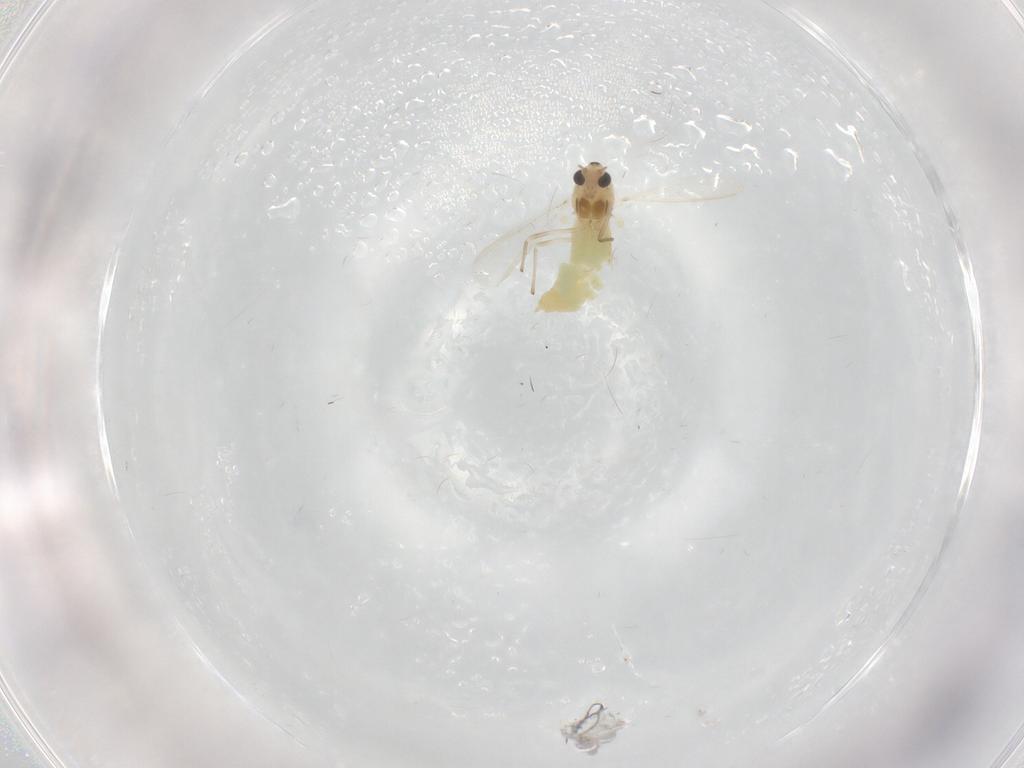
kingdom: Animalia
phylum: Arthropoda
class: Insecta
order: Diptera
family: Chironomidae
